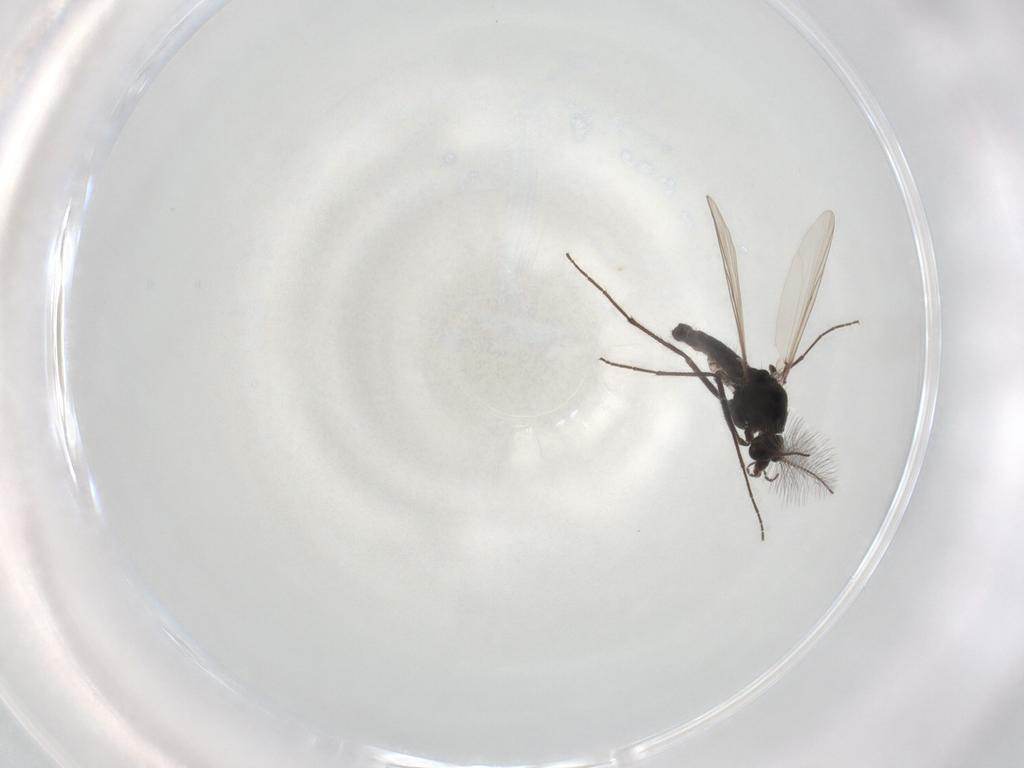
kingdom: Animalia
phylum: Arthropoda
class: Insecta
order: Diptera
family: Chironomidae
